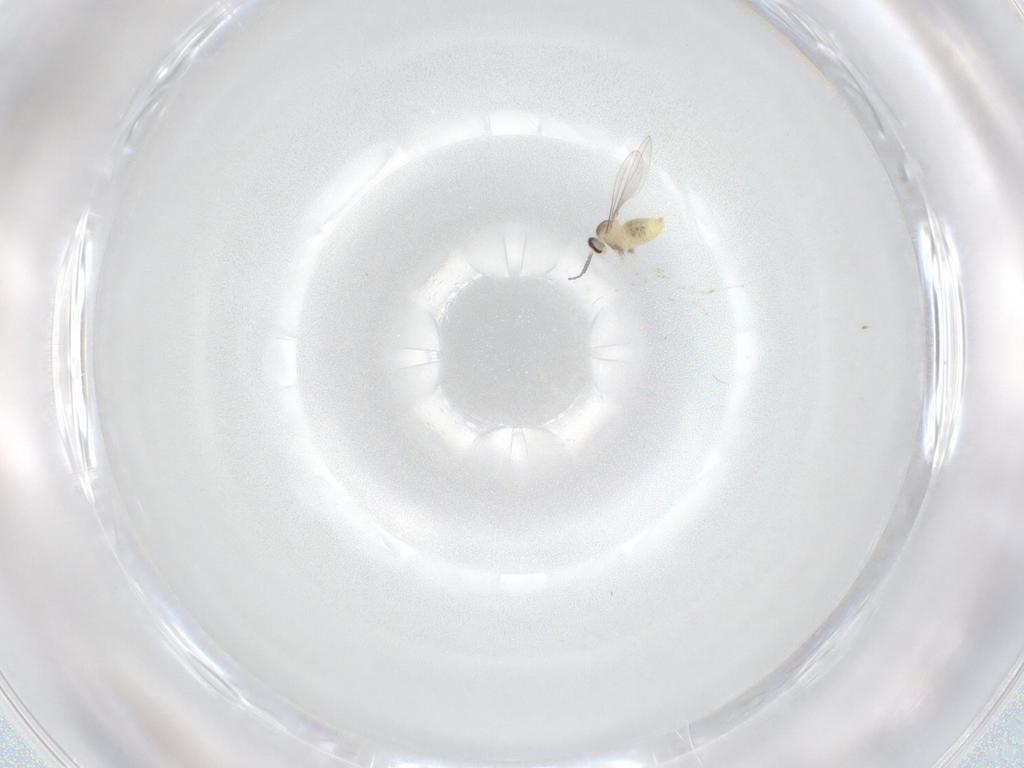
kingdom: Animalia
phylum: Arthropoda
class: Insecta
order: Diptera
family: Cecidomyiidae
